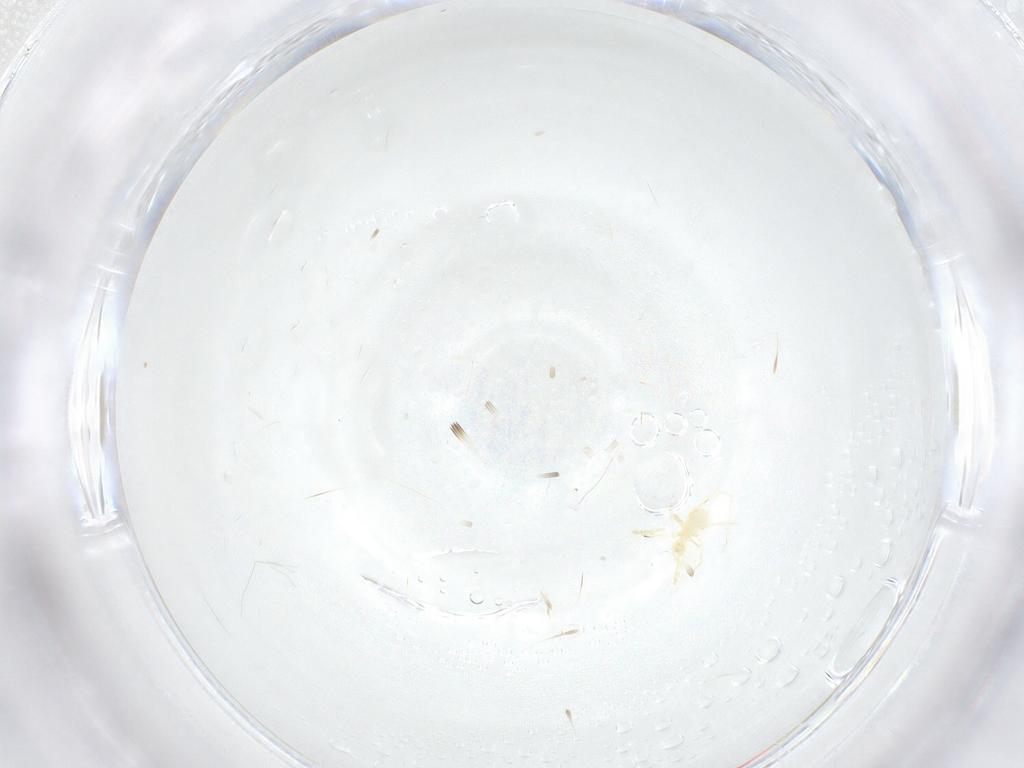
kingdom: Animalia
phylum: Arthropoda
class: Arachnida
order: Trombidiformes
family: Erythraeidae
